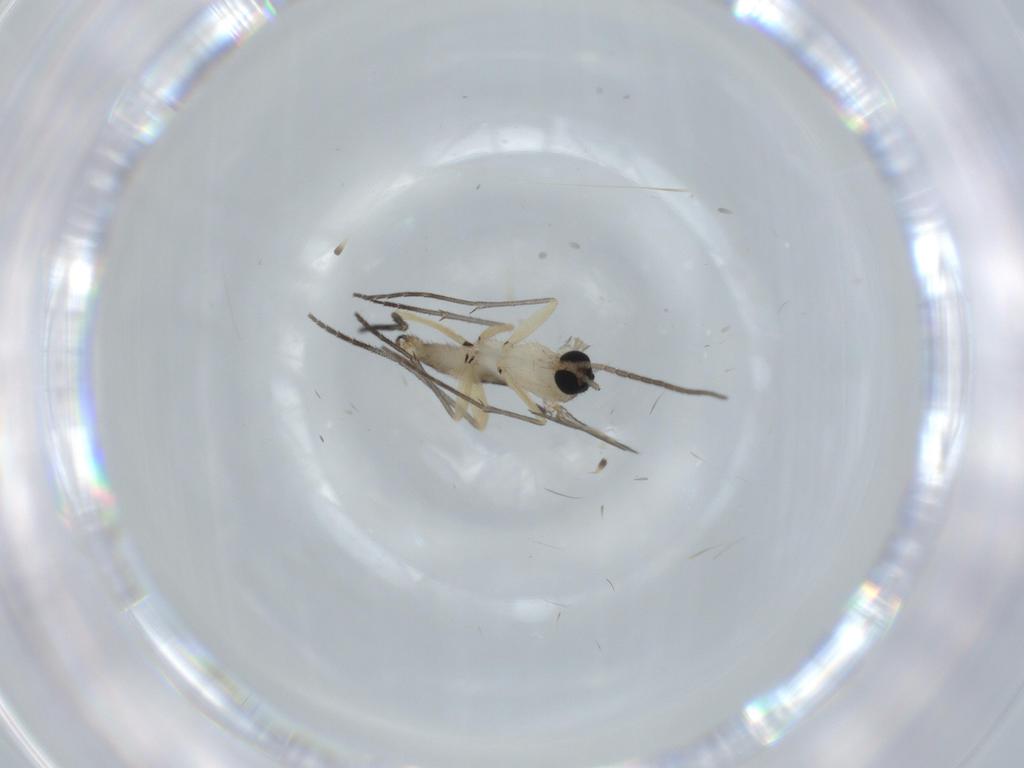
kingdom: Animalia
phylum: Arthropoda
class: Insecta
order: Diptera
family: Sciaridae
